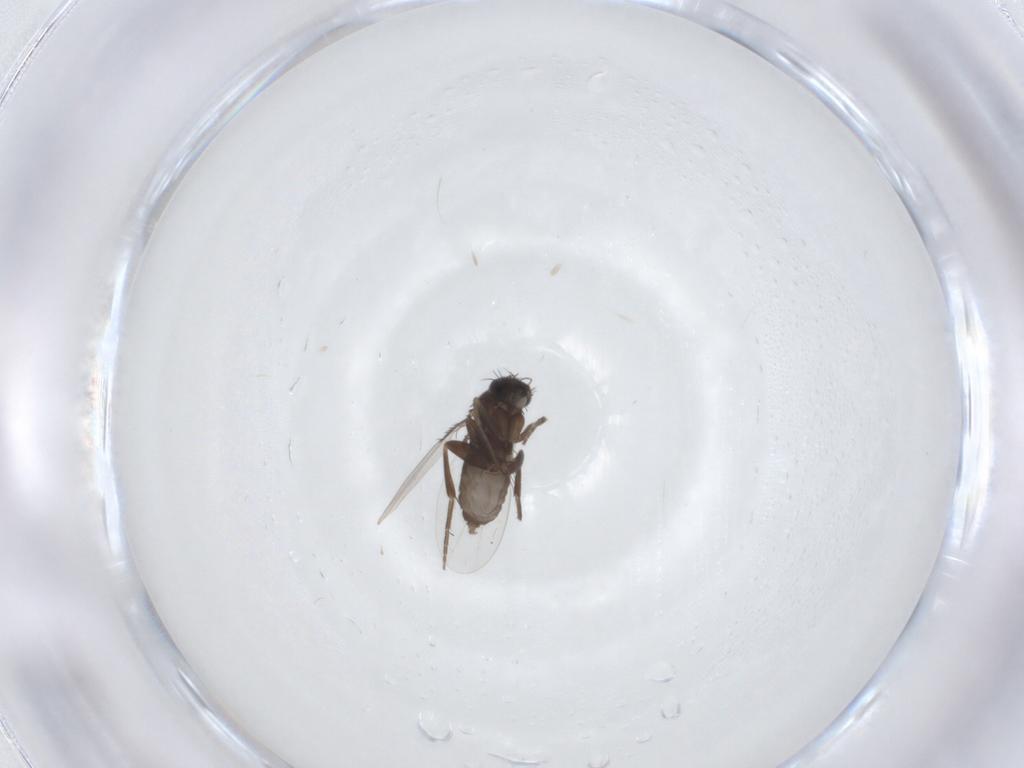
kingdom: Animalia
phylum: Arthropoda
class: Insecta
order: Diptera
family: Phoridae
